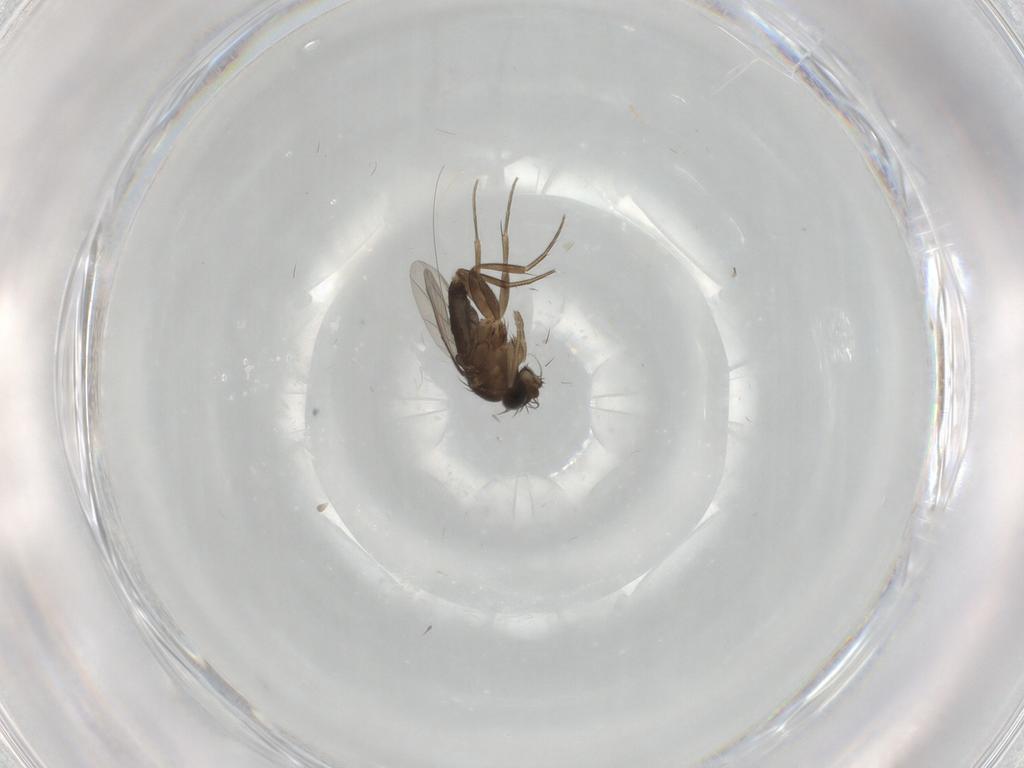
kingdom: Animalia
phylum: Arthropoda
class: Insecta
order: Diptera
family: Phoridae
